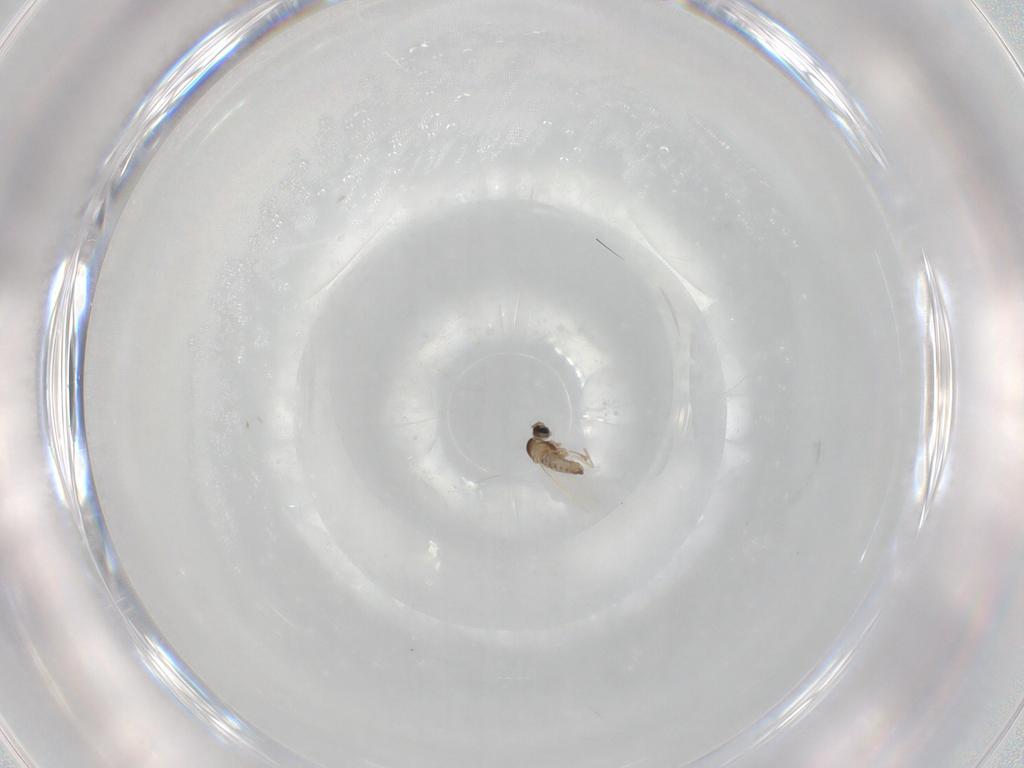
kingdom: Animalia
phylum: Arthropoda
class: Insecta
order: Diptera
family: Cecidomyiidae
